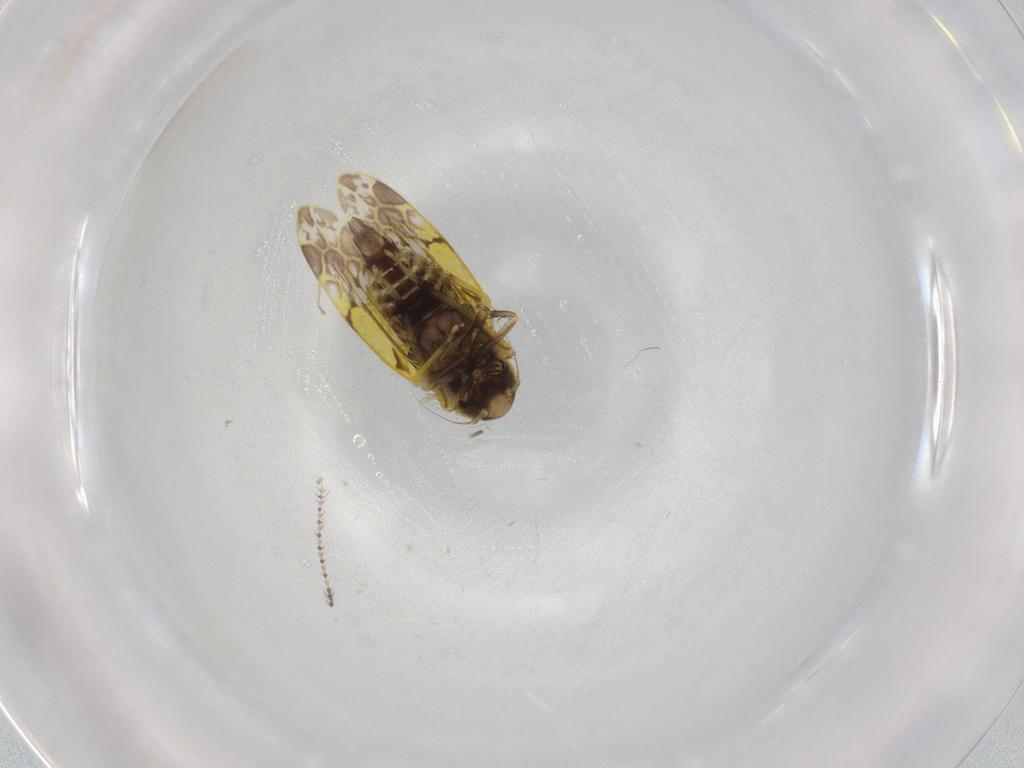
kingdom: Animalia
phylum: Arthropoda
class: Insecta
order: Hemiptera
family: Cicadellidae
